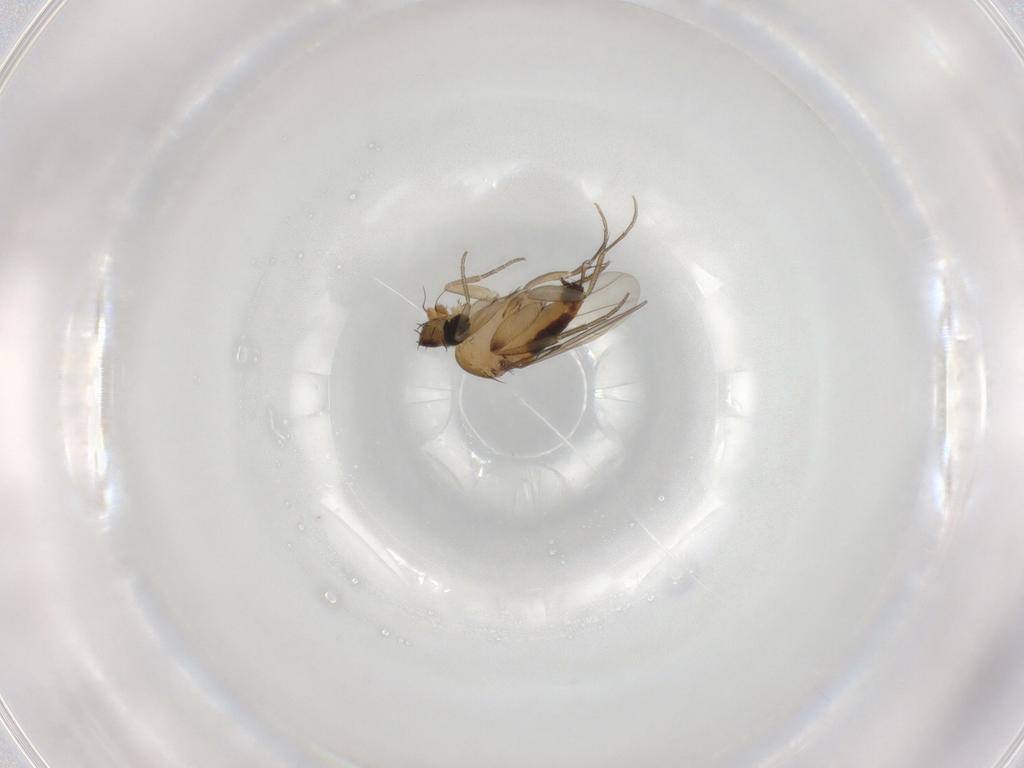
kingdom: Animalia
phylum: Arthropoda
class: Insecta
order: Diptera
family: Phoridae
